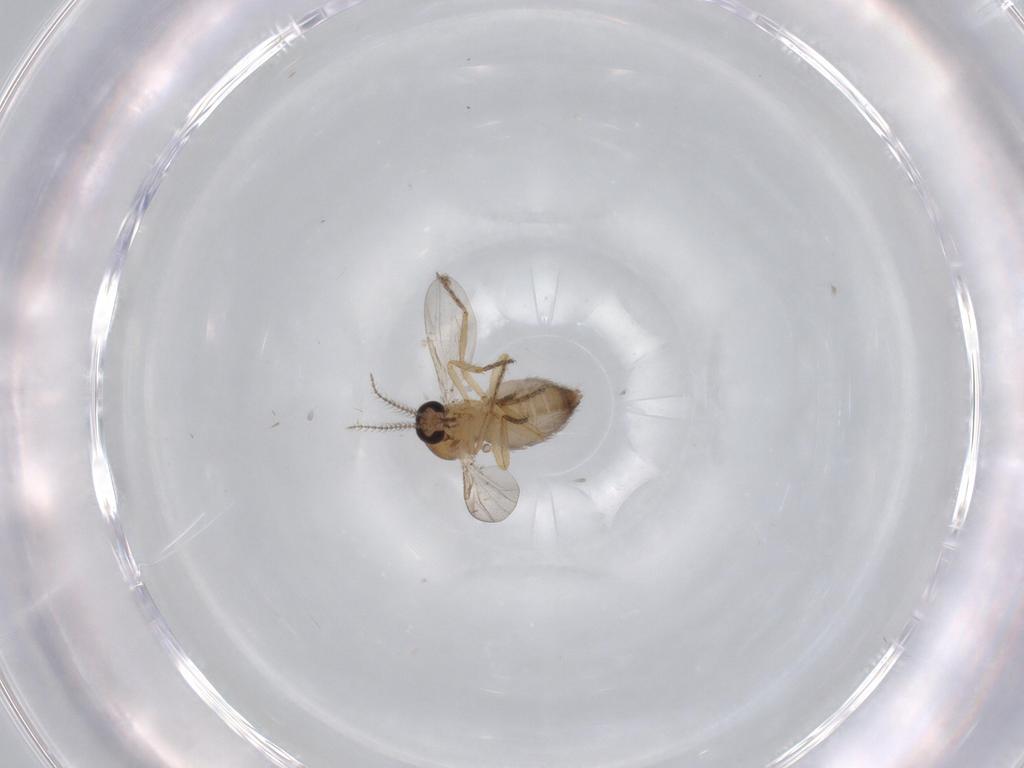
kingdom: Animalia
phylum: Arthropoda
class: Insecta
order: Diptera
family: Ceratopogonidae
